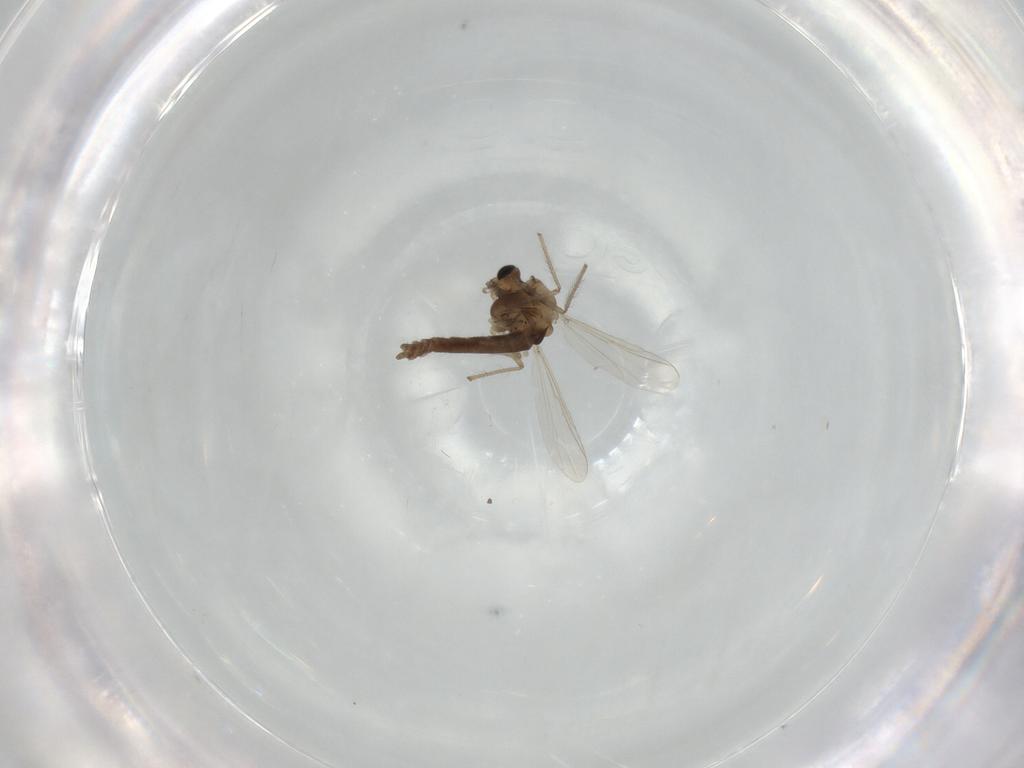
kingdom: Animalia
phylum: Arthropoda
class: Insecta
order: Diptera
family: Chironomidae
